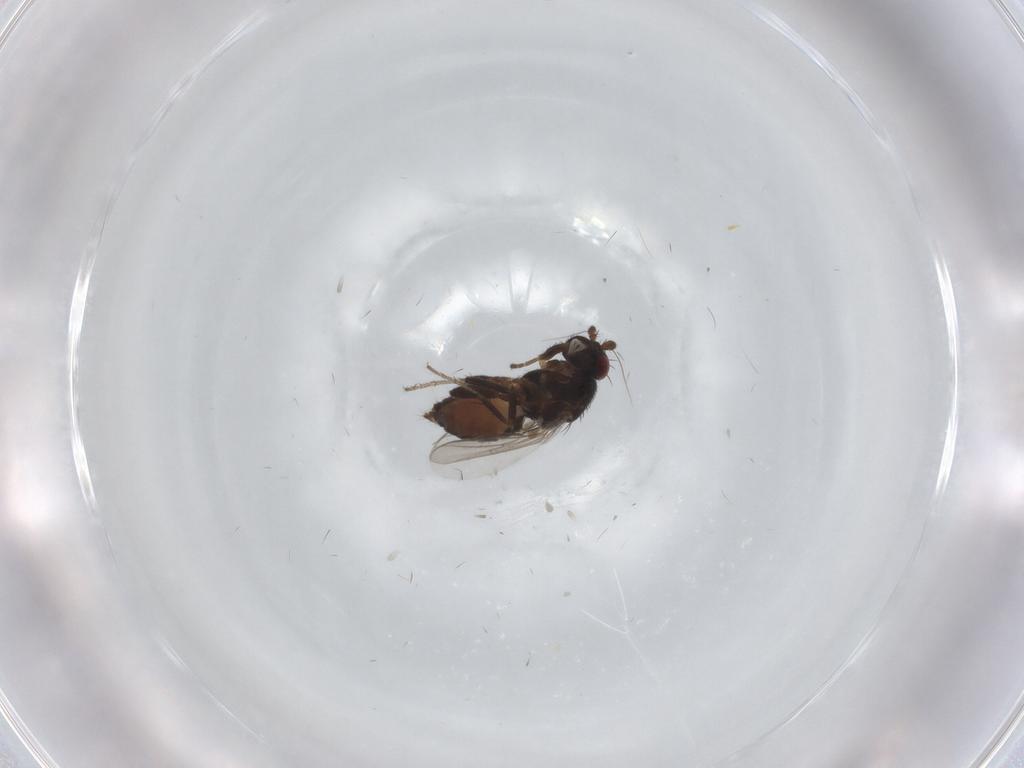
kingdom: Animalia
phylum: Arthropoda
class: Insecta
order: Diptera
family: Sphaeroceridae
